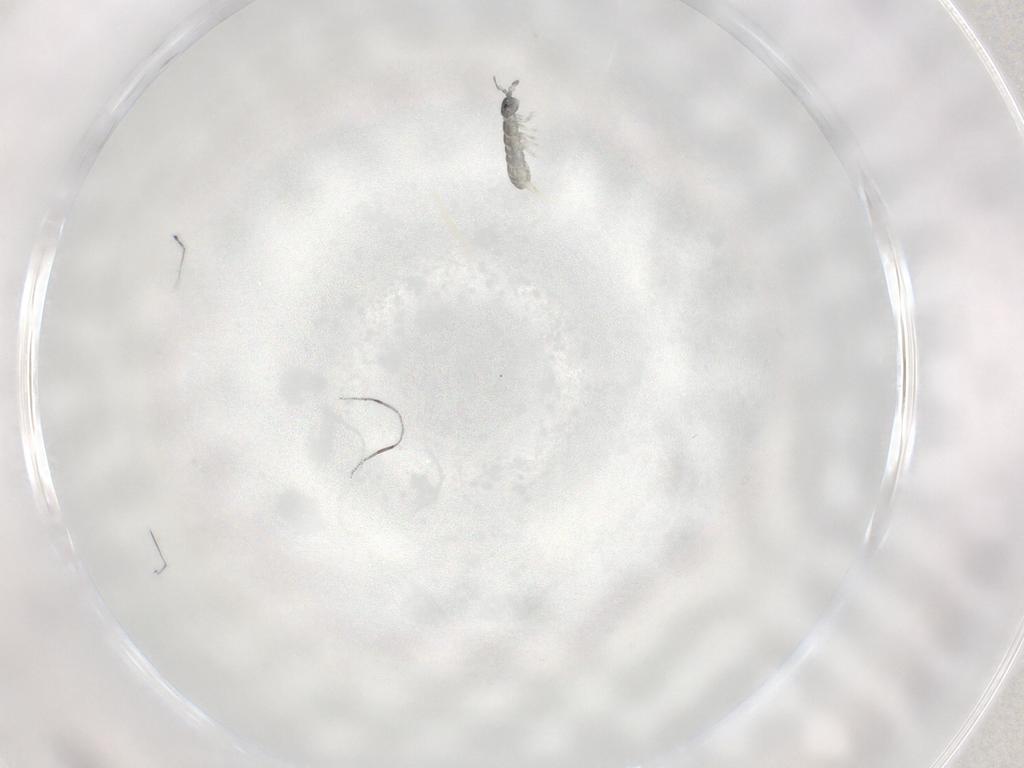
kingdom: Animalia
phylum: Arthropoda
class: Collembola
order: Entomobryomorpha
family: Isotomidae
